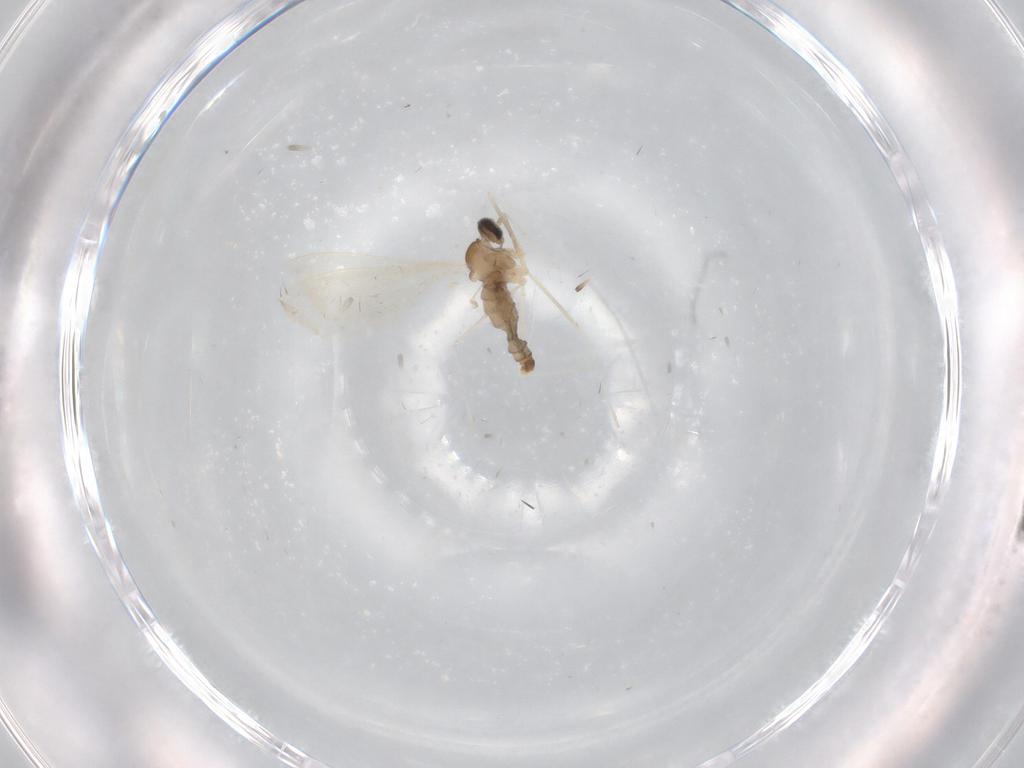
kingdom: Animalia
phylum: Arthropoda
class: Insecta
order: Diptera
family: Cecidomyiidae
